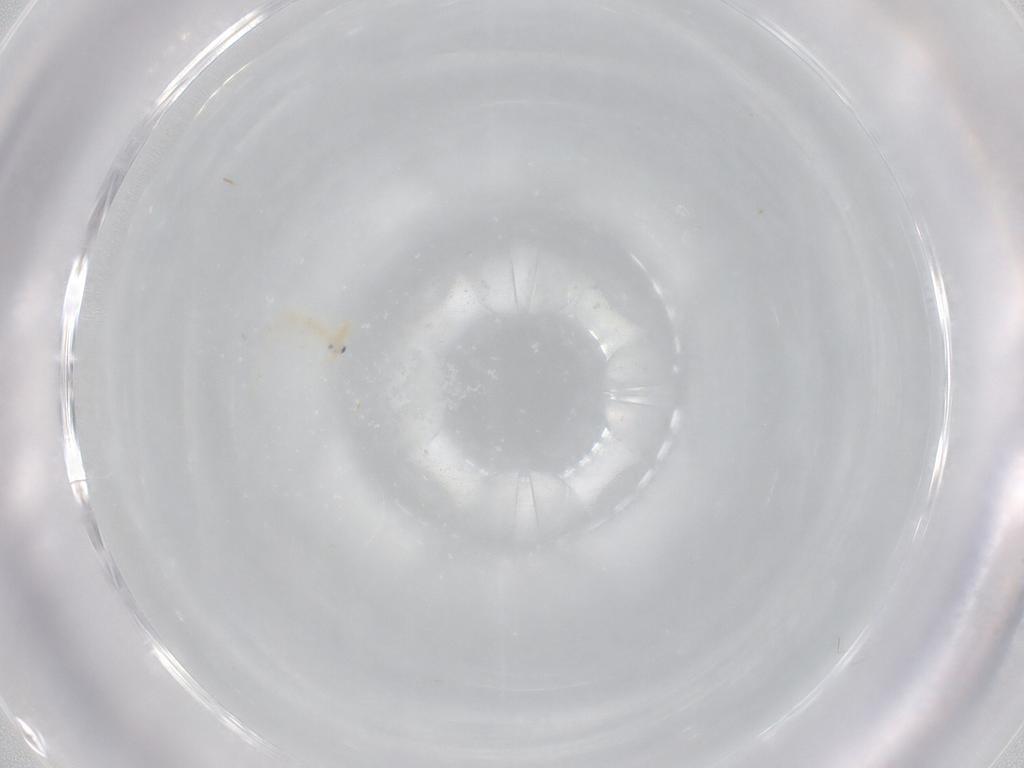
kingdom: Animalia
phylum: Arthropoda
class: Collembola
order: Entomobryomorpha
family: Entomobryidae
